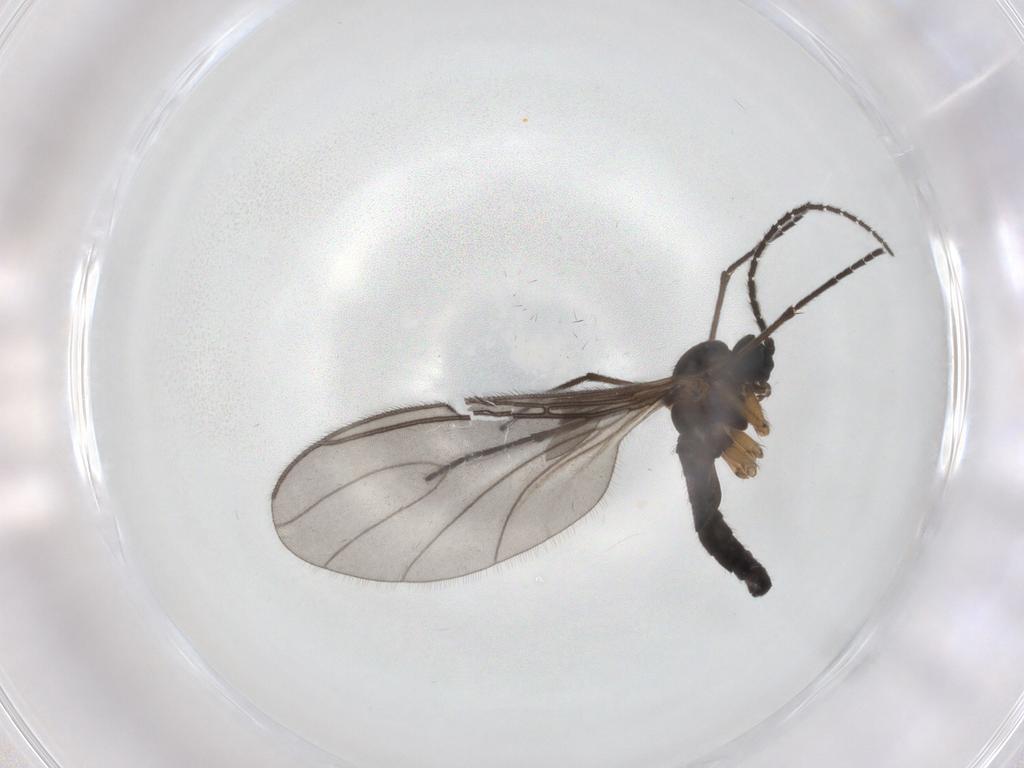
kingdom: Animalia
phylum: Arthropoda
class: Insecta
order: Diptera
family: Sciaridae
